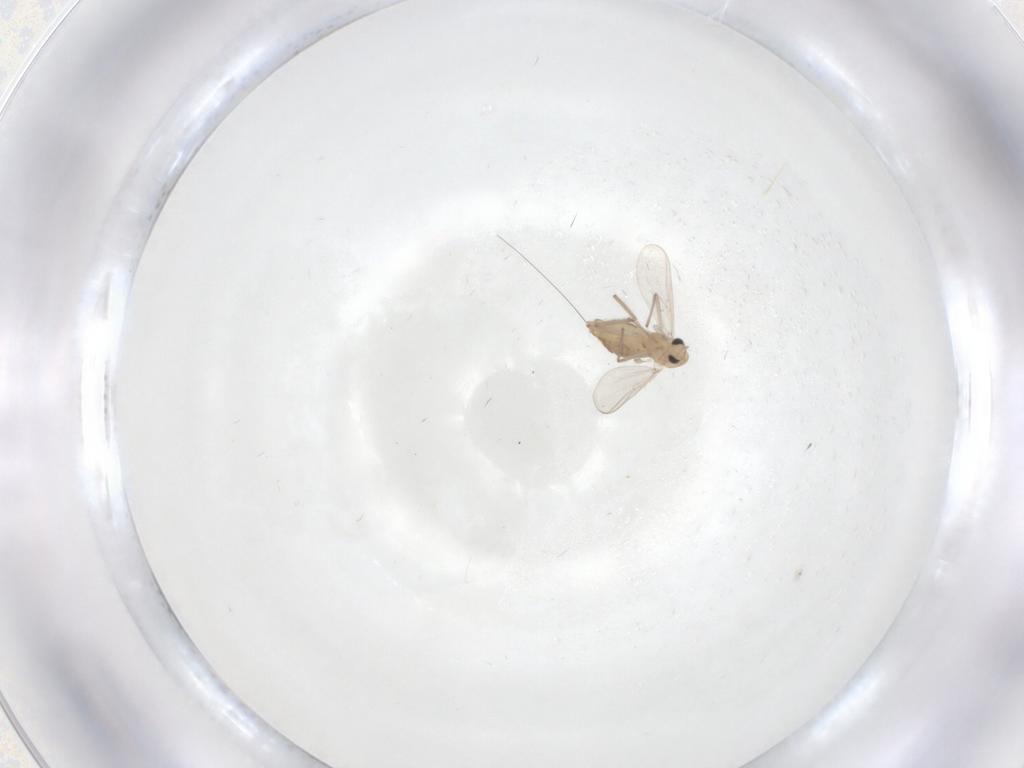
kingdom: Animalia
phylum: Arthropoda
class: Insecta
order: Diptera
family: Chironomidae
